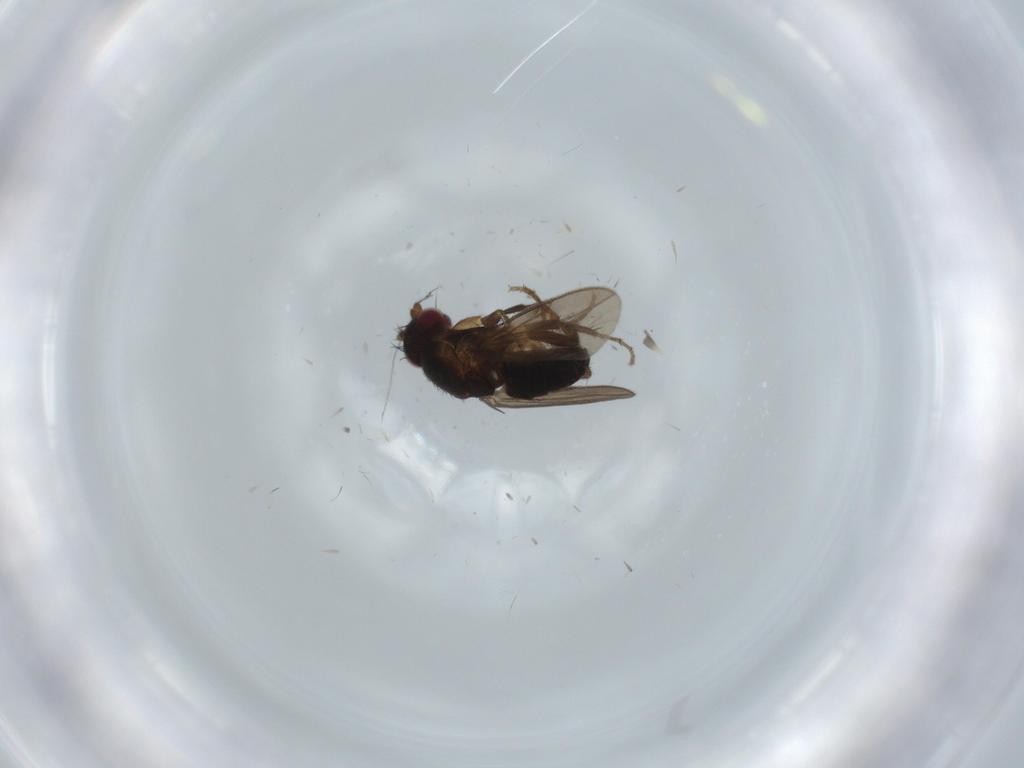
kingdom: Animalia
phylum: Arthropoda
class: Insecta
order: Diptera
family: Sphaeroceridae
